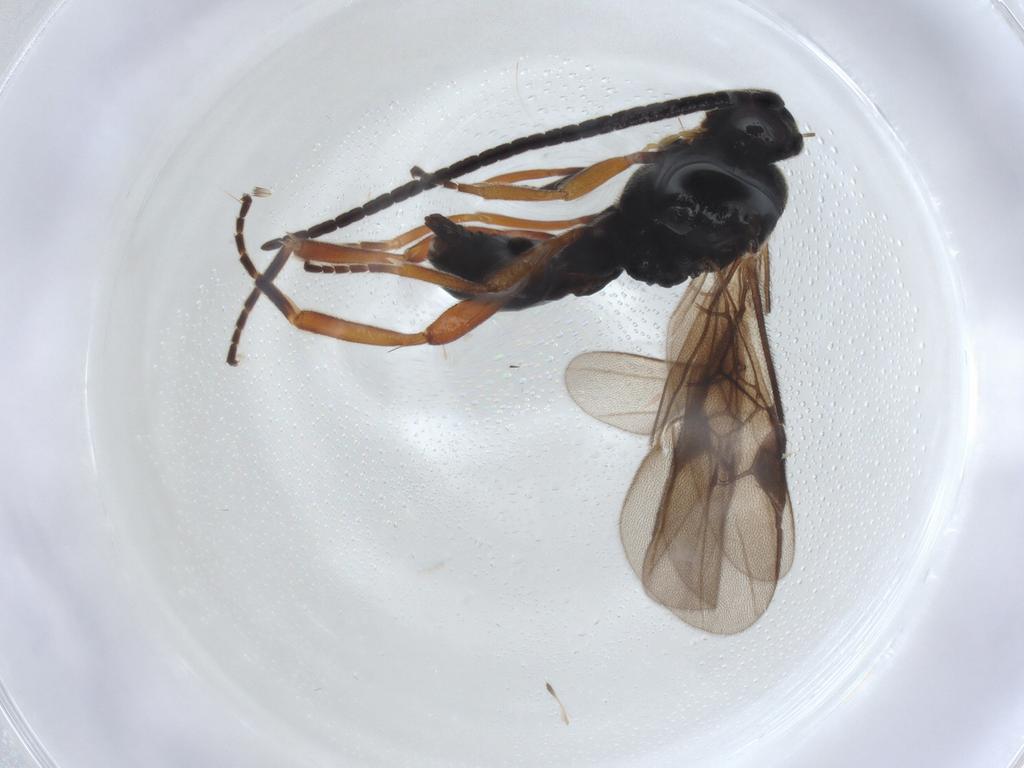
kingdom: Animalia
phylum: Arthropoda
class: Insecta
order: Hymenoptera
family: Braconidae
